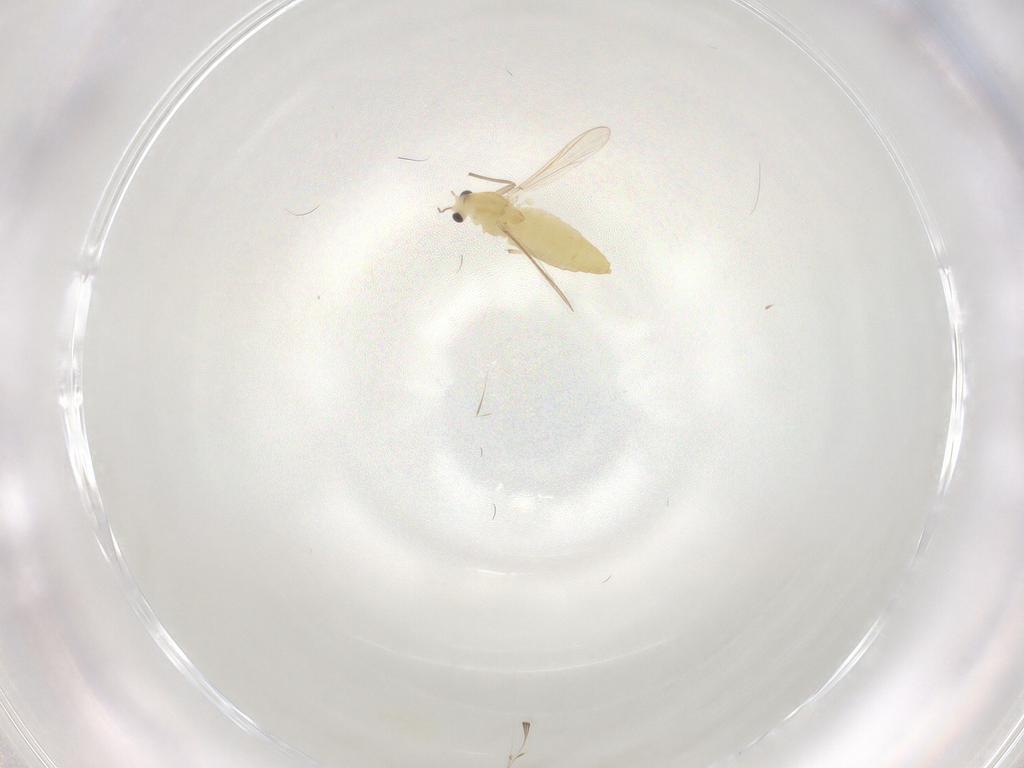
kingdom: Animalia
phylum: Arthropoda
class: Insecta
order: Diptera
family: Chironomidae
